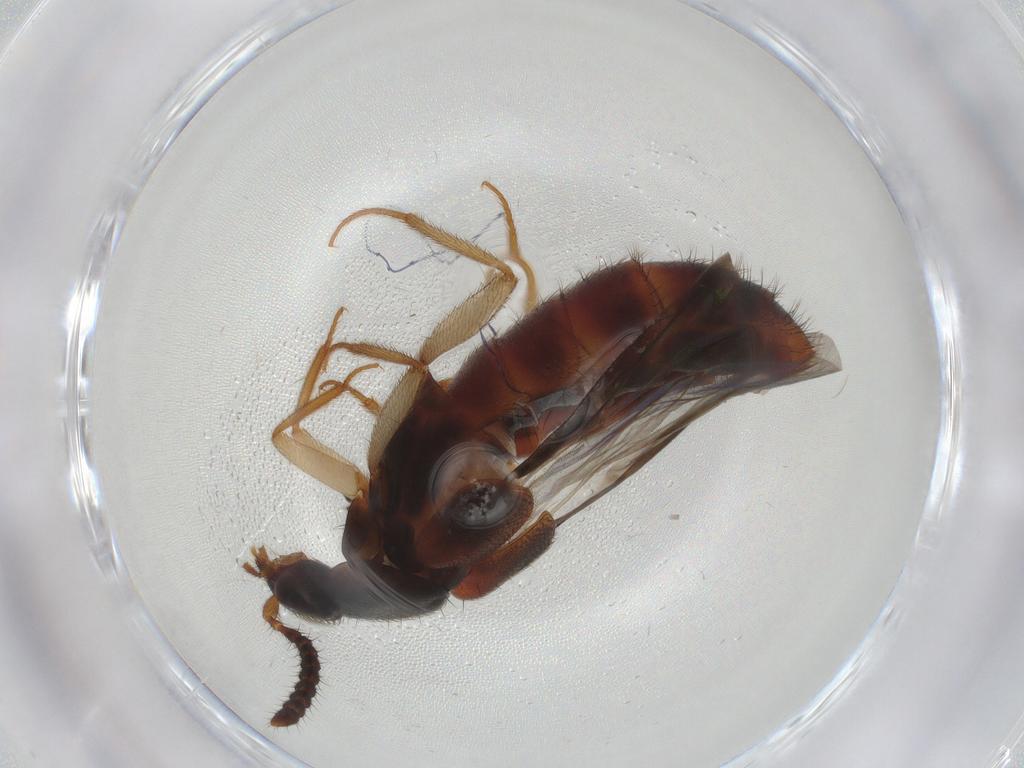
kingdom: Animalia
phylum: Arthropoda
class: Insecta
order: Coleoptera
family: Staphylinidae
